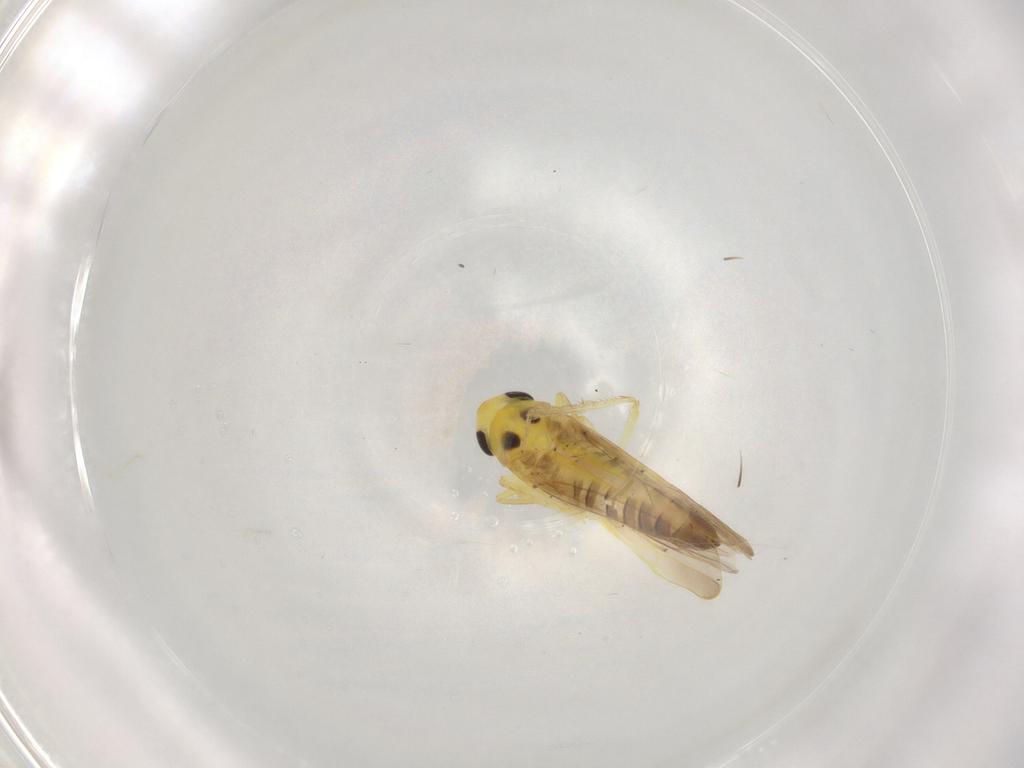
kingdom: Animalia
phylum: Arthropoda
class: Insecta
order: Hemiptera
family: Cicadellidae
